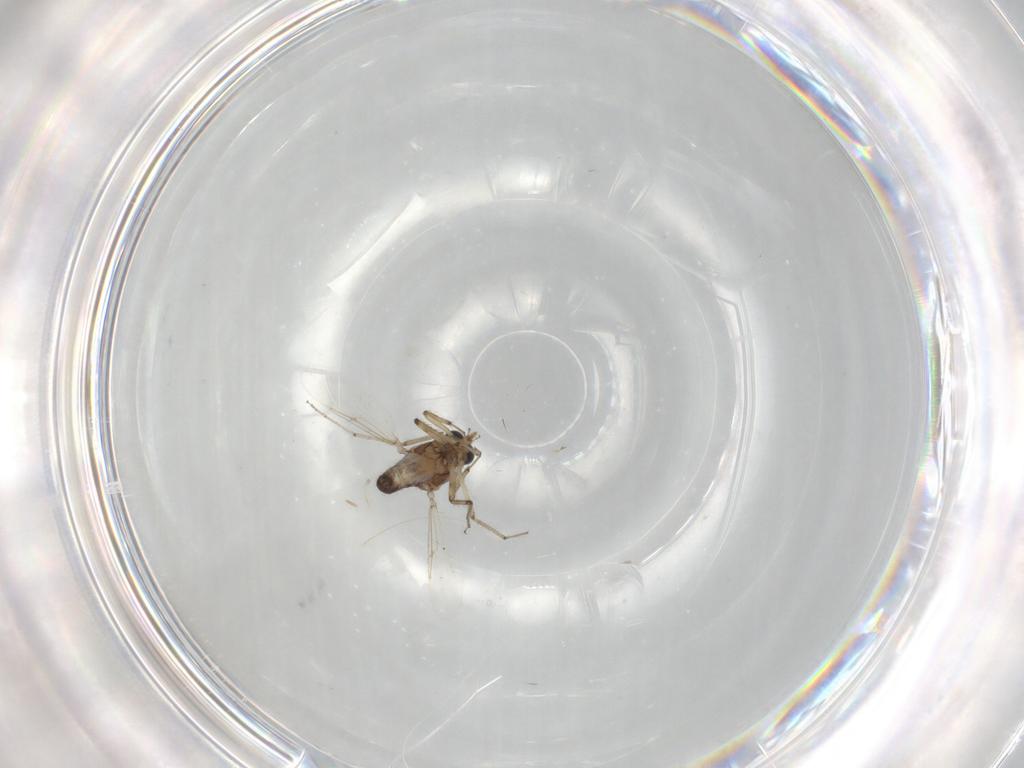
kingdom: Animalia
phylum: Arthropoda
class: Insecta
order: Diptera
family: Ceratopogonidae
